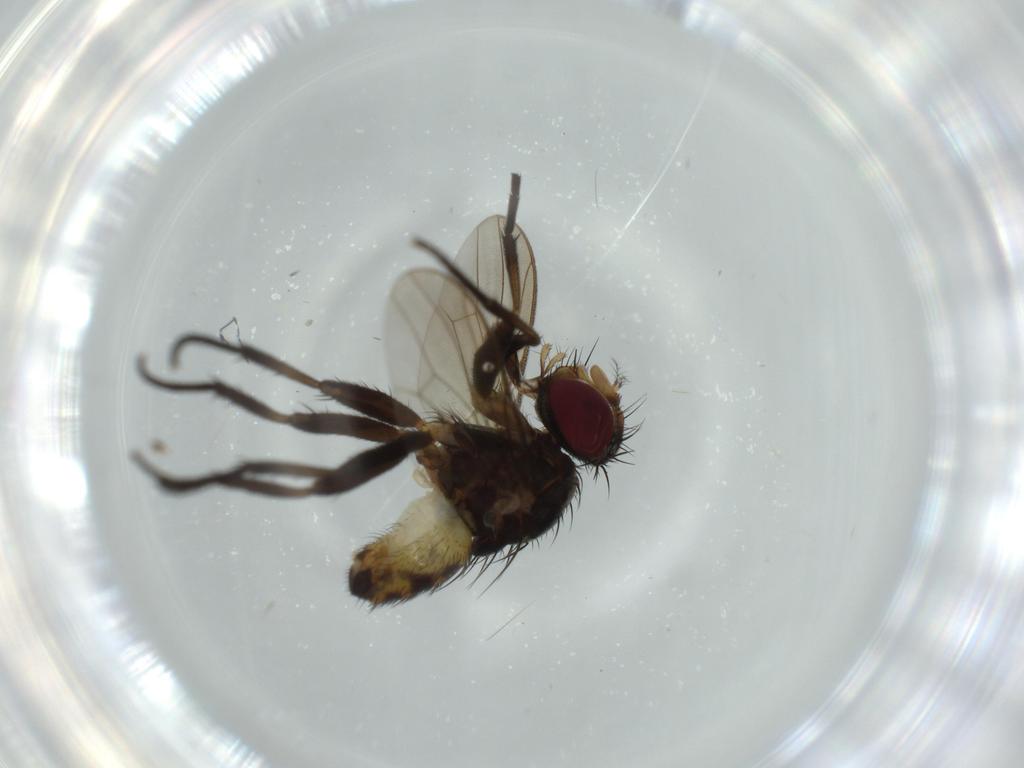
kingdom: Animalia
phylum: Arthropoda
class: Insecta
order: Diptera
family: Anthomyiidae
